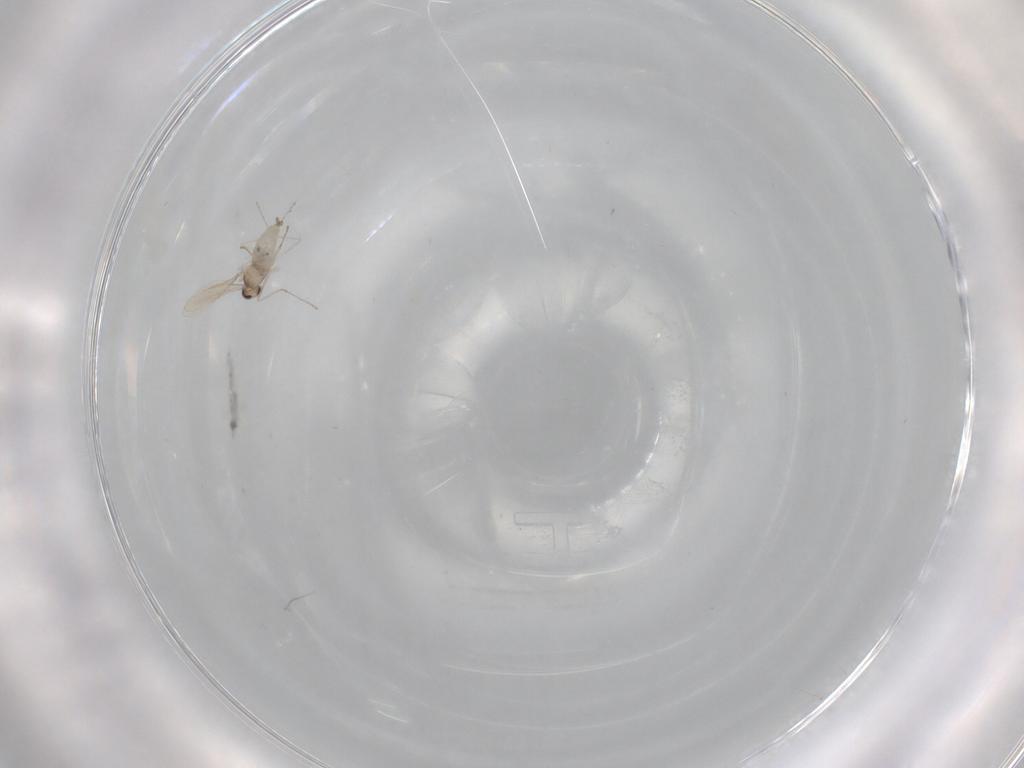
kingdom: Animalia
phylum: Arthropoda
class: Insecta
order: Diptera
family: Cecidomyiidae
